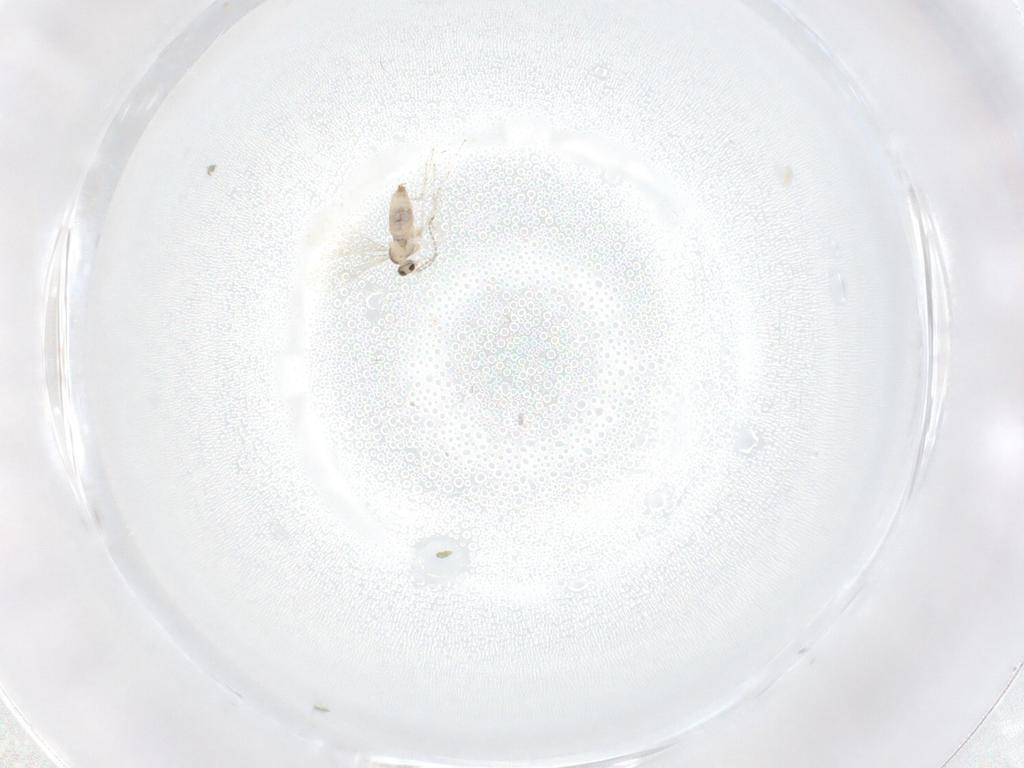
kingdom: Animalia
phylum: Arthropoda
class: Insecta
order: Diptera
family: Cecidomyiidae
